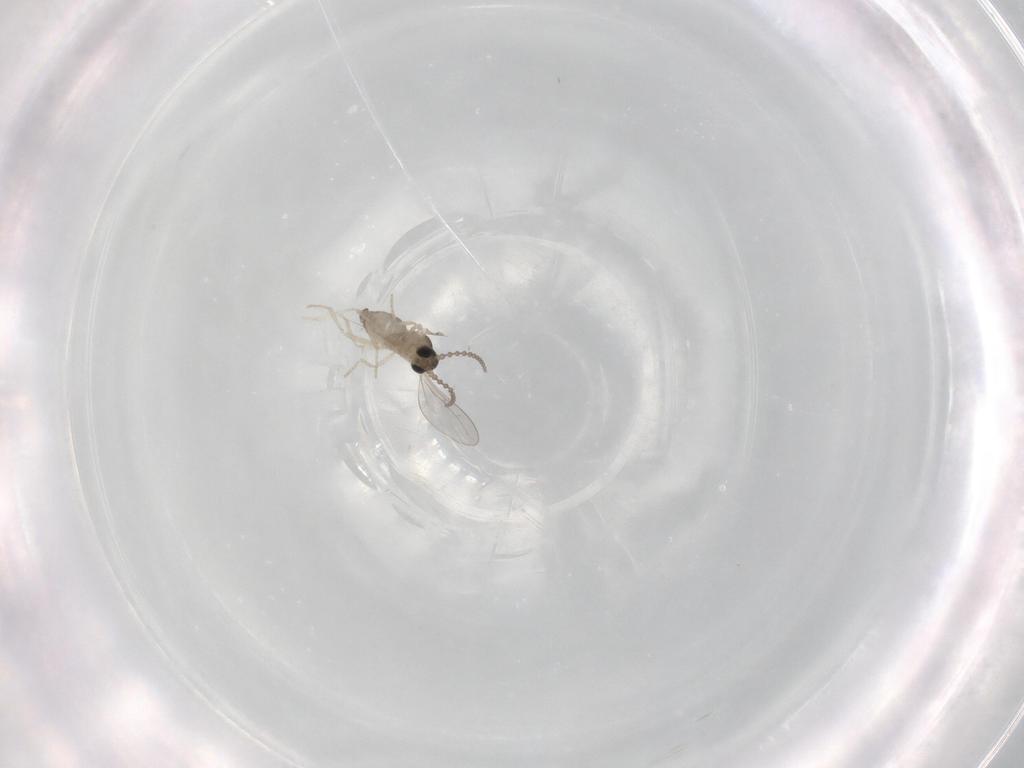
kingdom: Animalia
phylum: Arthropoda
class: Insecta
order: Diptera
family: Cecidomyiidae
